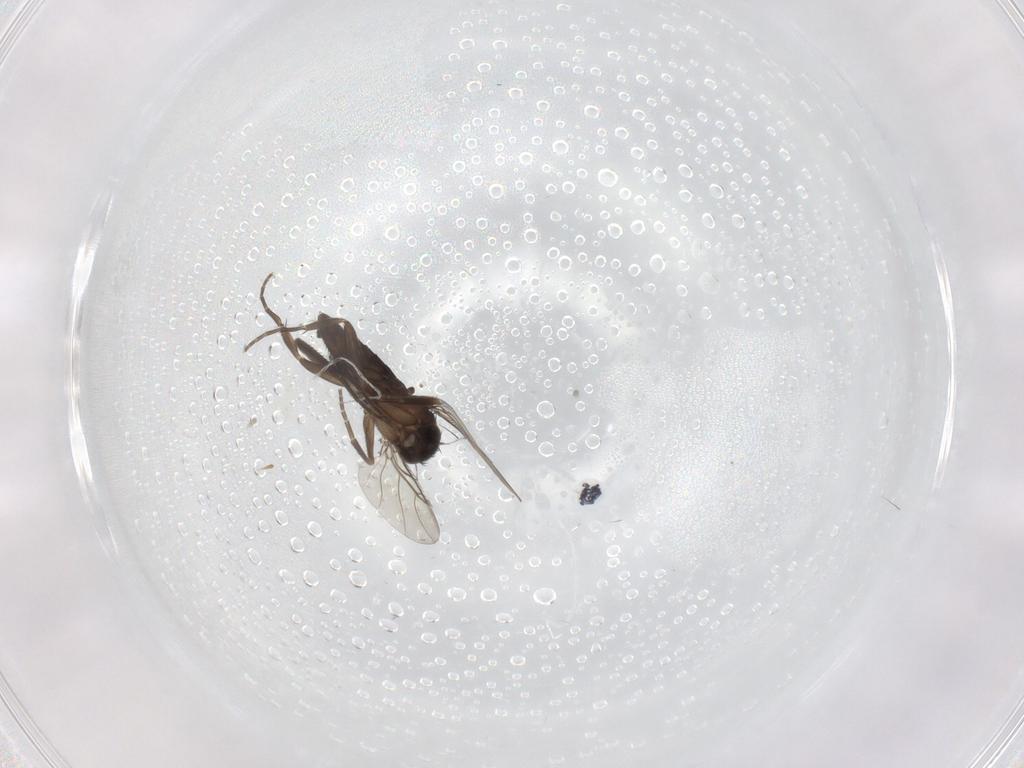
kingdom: Animalia
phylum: Arthropoda
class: Insecta
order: Diptera
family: Phoridae
